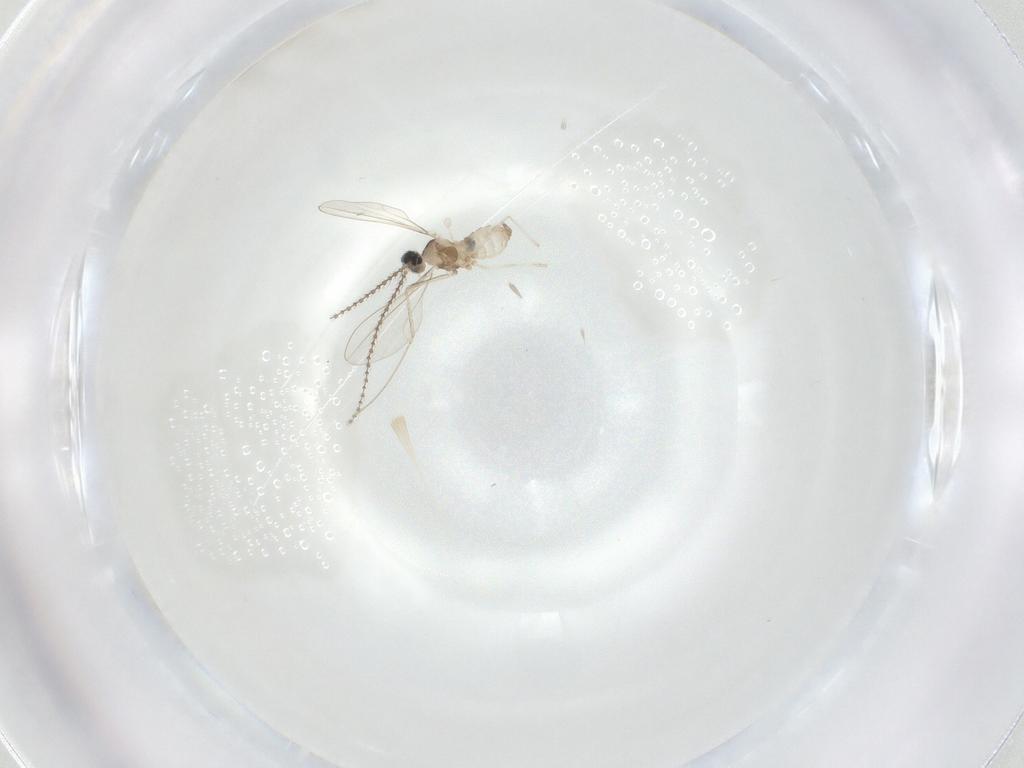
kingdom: Animalia
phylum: Arthropoda
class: Insecta
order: Diptera
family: Cecidomyiidae
